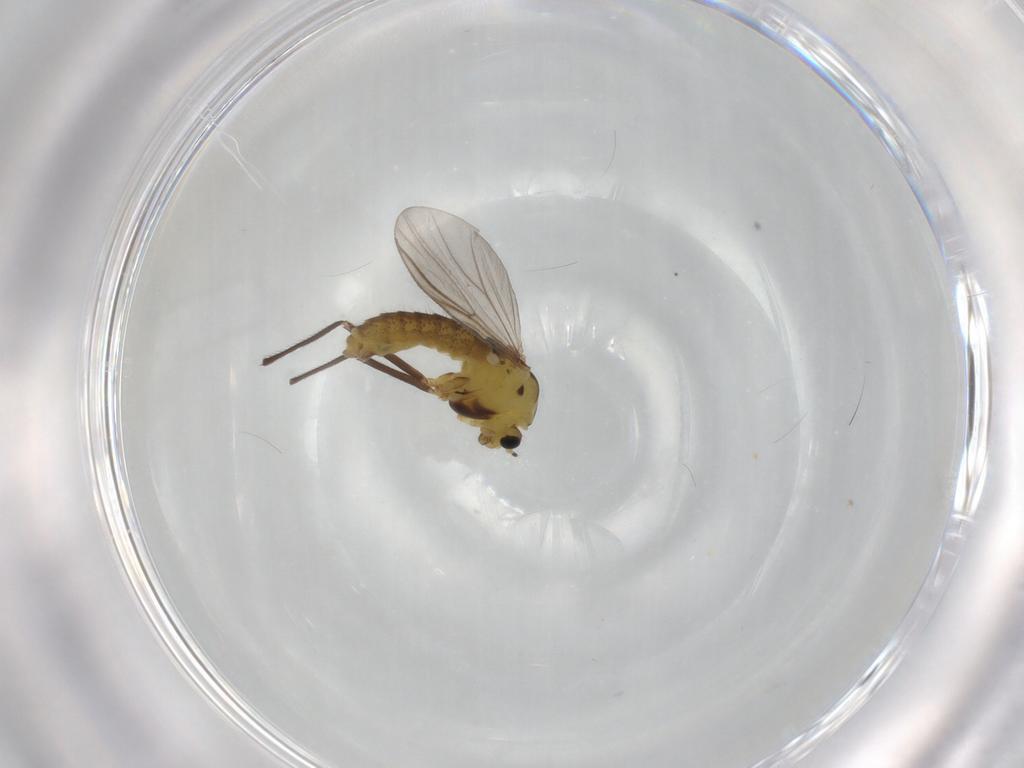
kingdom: Animalia
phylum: Arthropoda
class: Insecta
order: Diptera
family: Chironomidae
